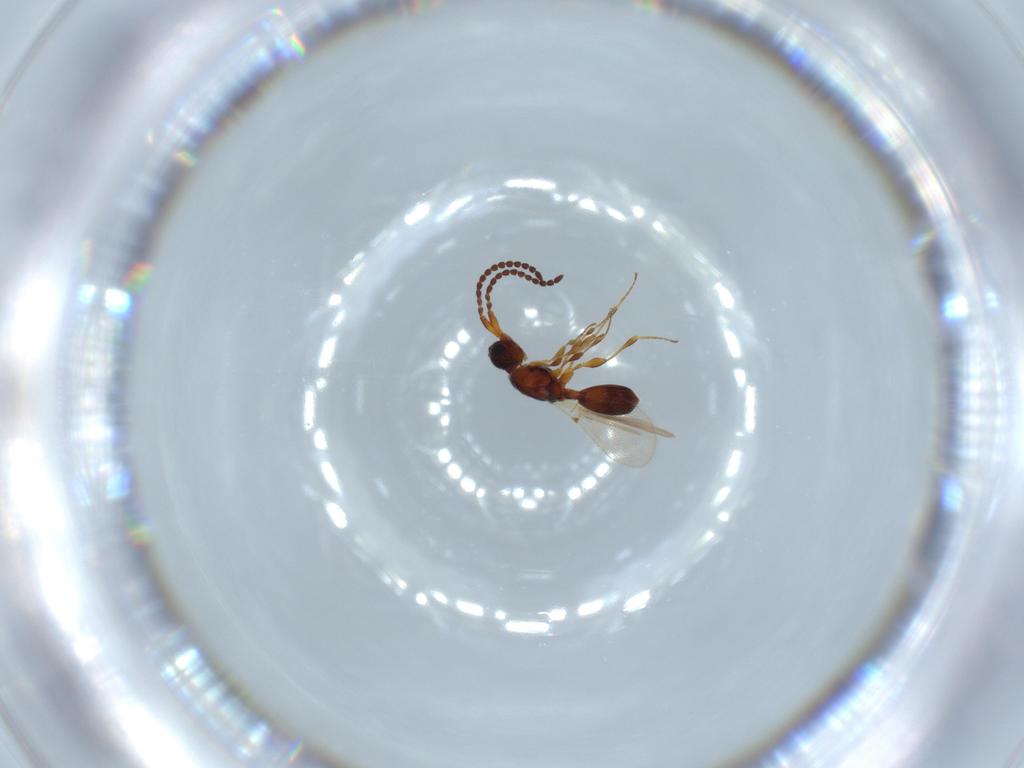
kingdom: Animalia
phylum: Arthropoda
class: Insecta
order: Hymenoptera
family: Diapriidae
